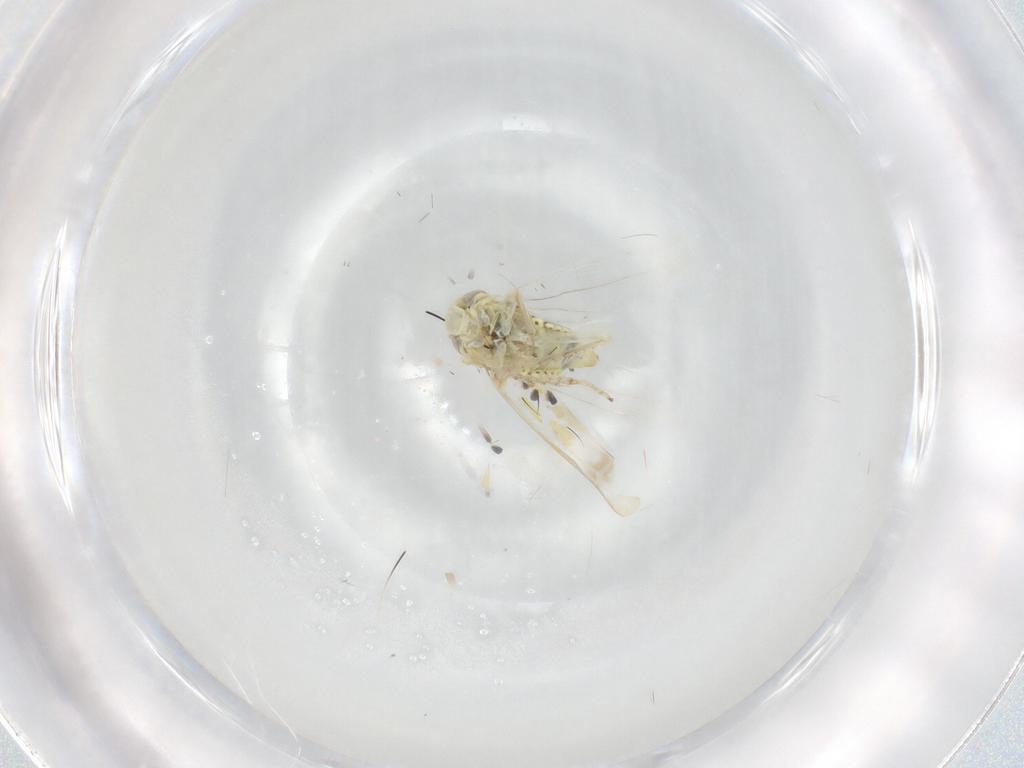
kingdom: Animalia
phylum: Arthropoda
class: Insecta
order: Hemiptera
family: Cicadellidae
